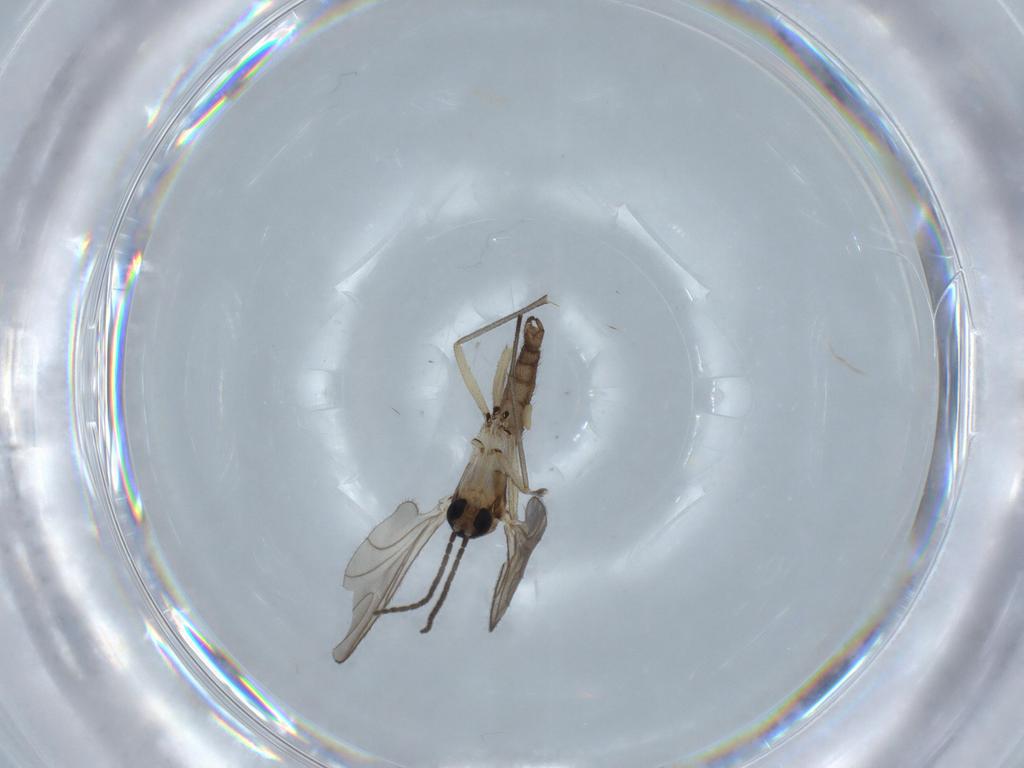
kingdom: Animalia
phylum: Arthropoda
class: Insecta
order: Diptera
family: Sciaridae
